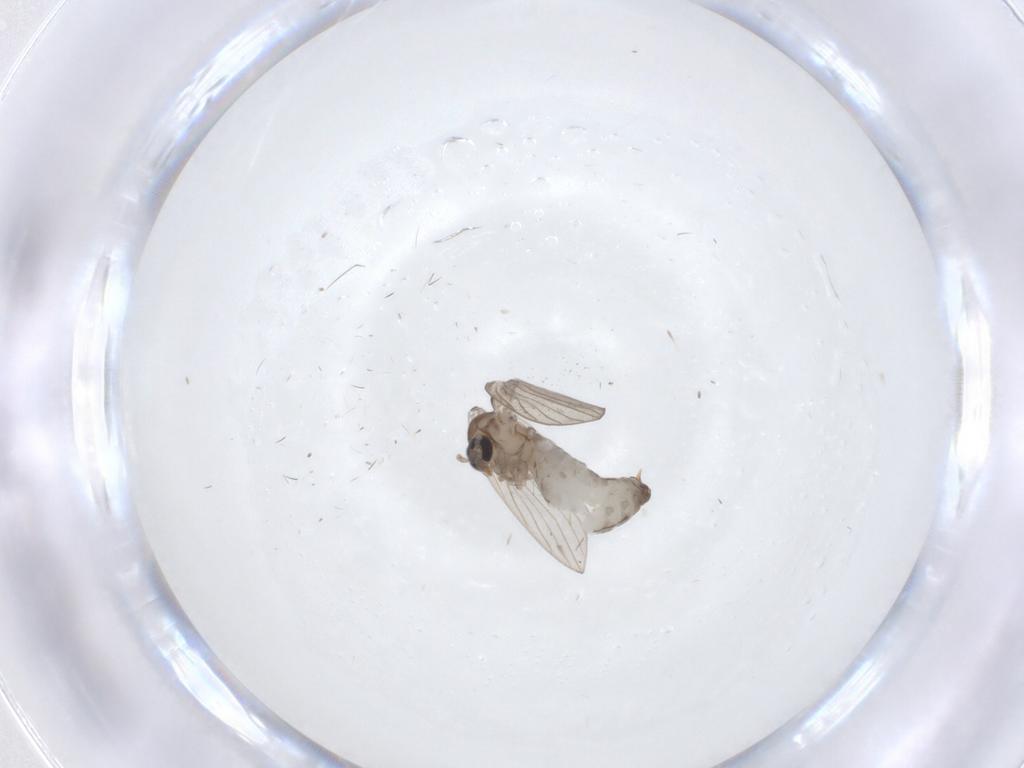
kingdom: Animalia
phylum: Arthropoda
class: Insecta
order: Diptera
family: Psychodidae
